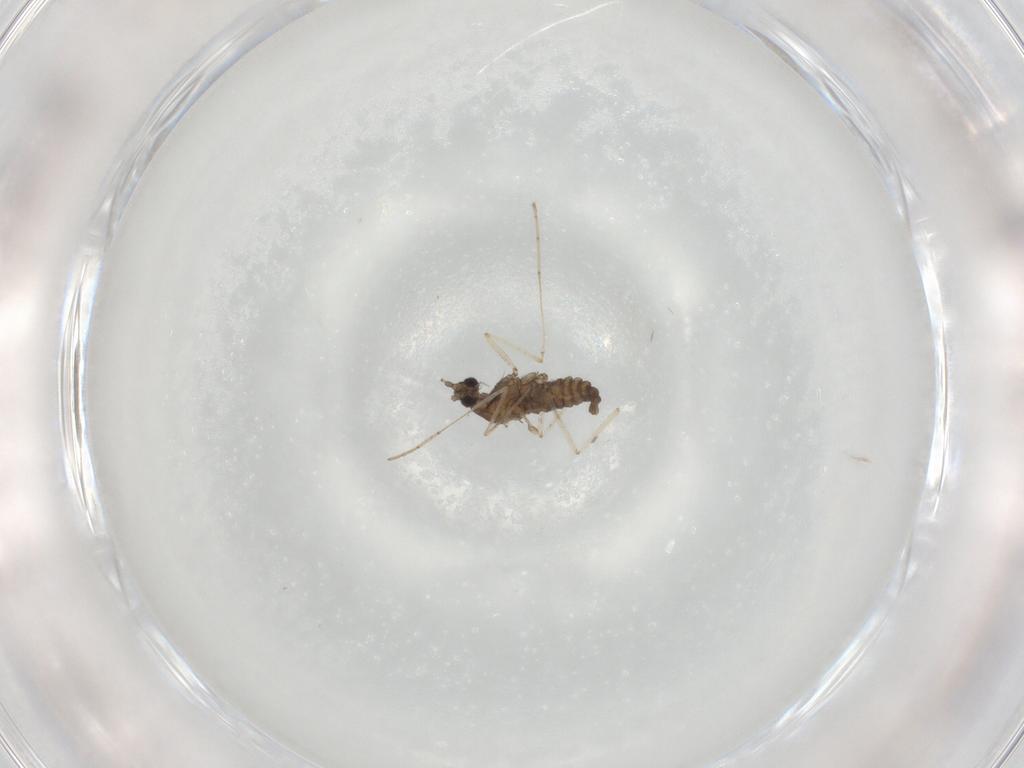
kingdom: Animalia
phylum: Arthropoda
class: Insecta
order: Diptera
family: Cecidomyiidae
